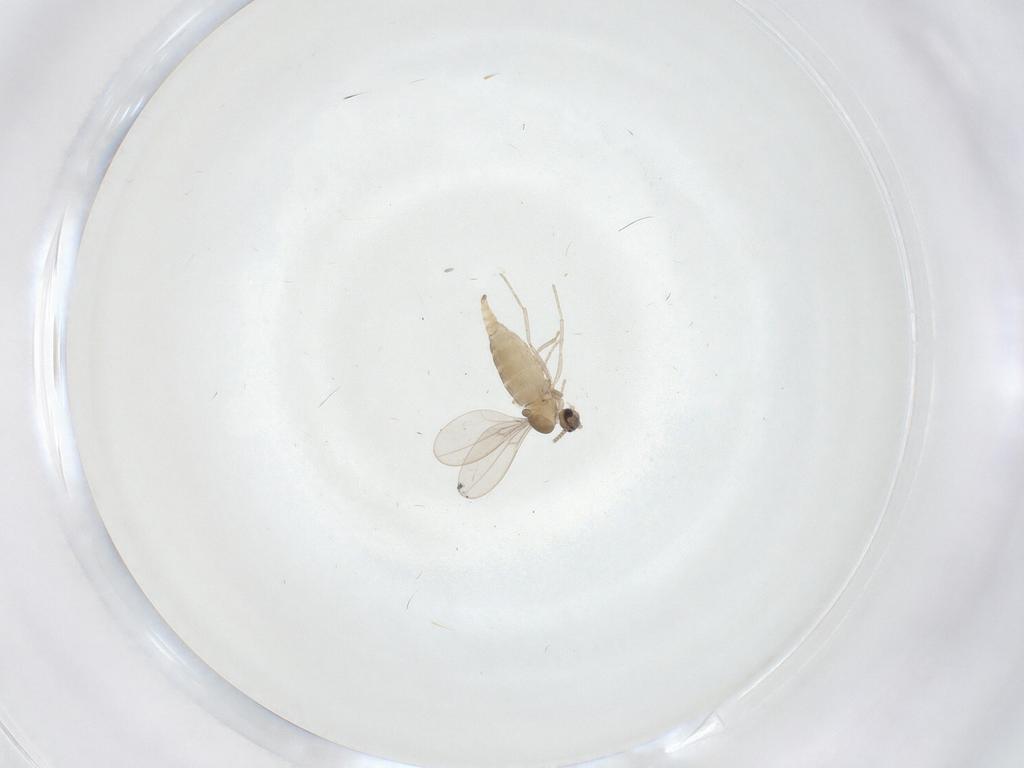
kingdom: Animalia
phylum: Arthropoda
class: Insecta
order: Diptera
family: Cecidomyiidae
